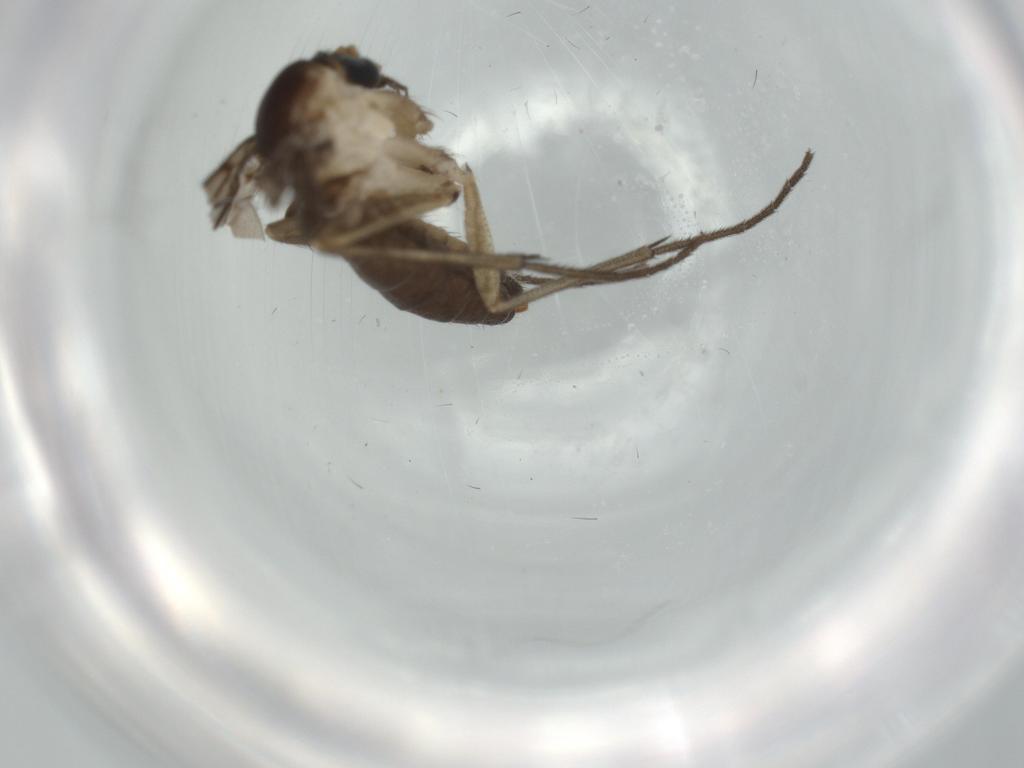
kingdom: Animalia
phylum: Arthropoda
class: Insecta
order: Diptera
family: Diadocidiidae
